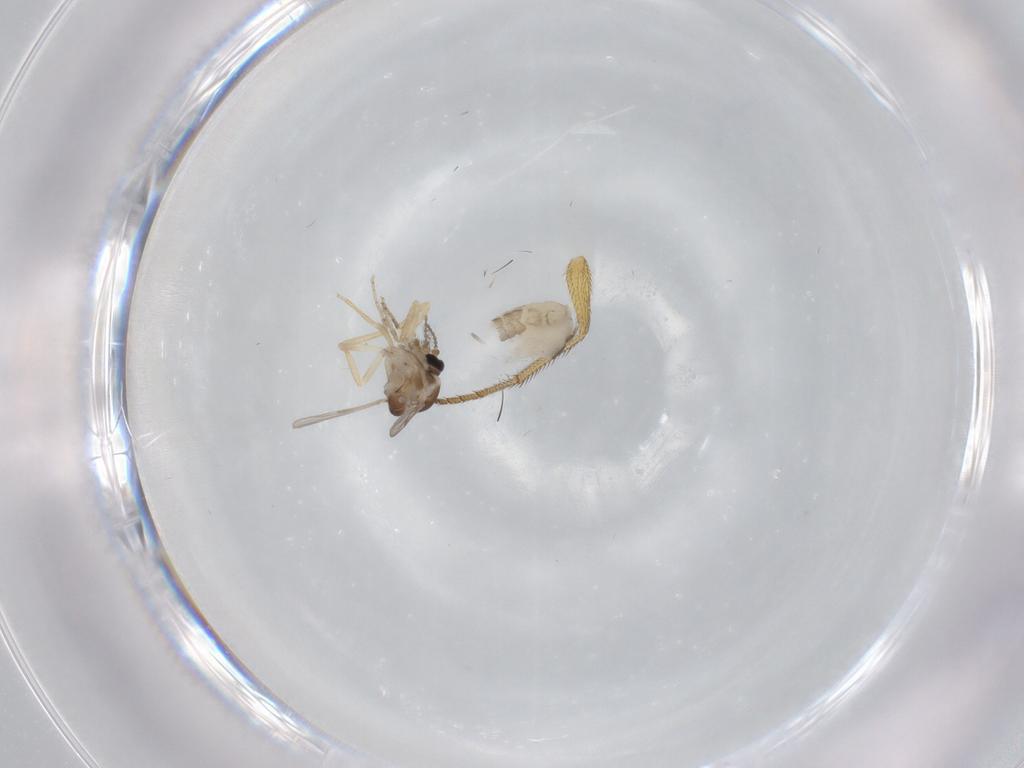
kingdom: Animalia
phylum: Arthropoda
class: Insecta
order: Diptera
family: Ceratopogonidae
